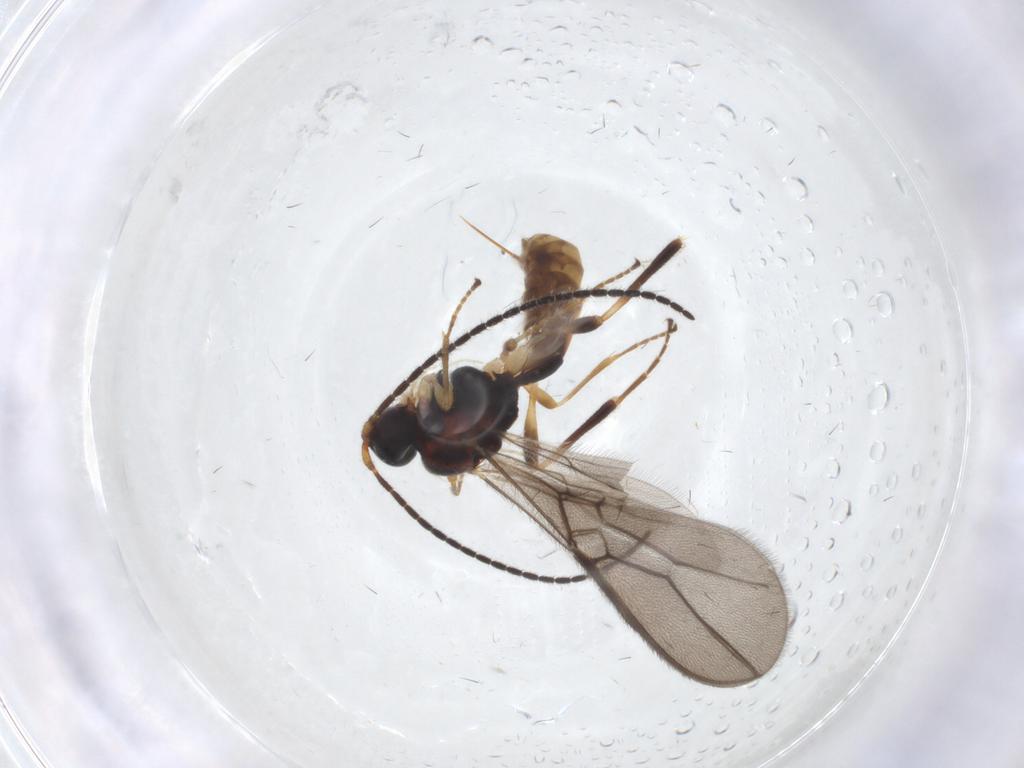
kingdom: Animalia
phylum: Arthropoda
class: Insecta
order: Hymenoptera
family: Braconidae
